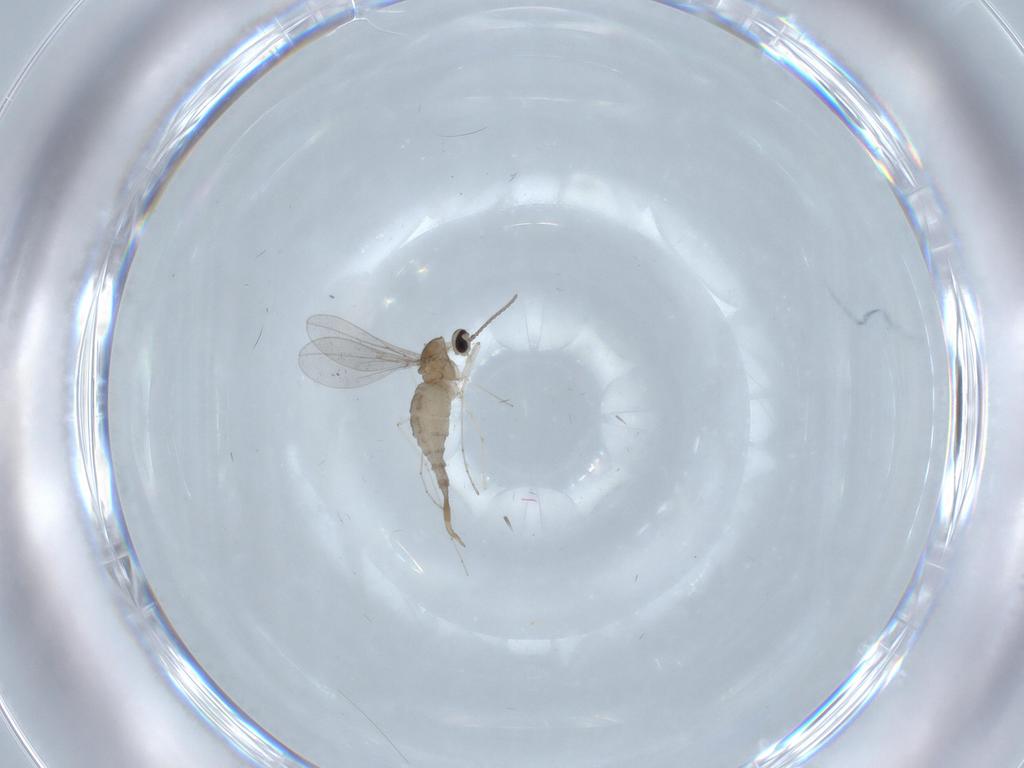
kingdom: Animalia
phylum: Arthropoda
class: Insecta
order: Diptera
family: Cecidomyiidae
